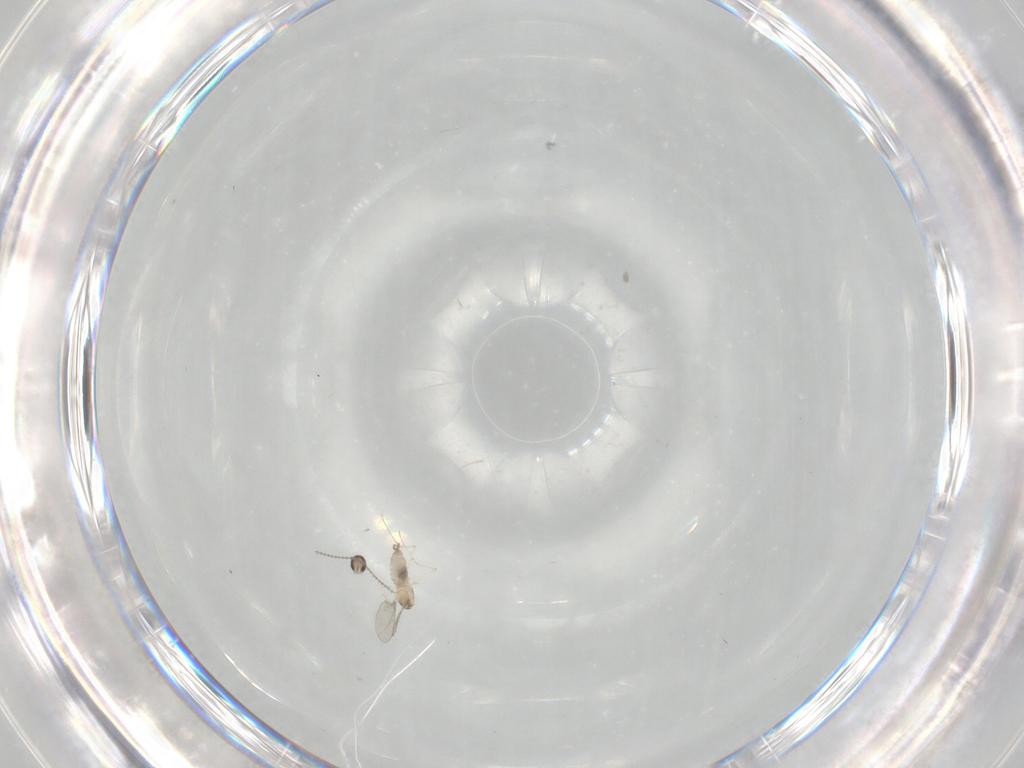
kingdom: Animalia
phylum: Arthropoda
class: Insecta
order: Diptera
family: Cecidomyiidae
